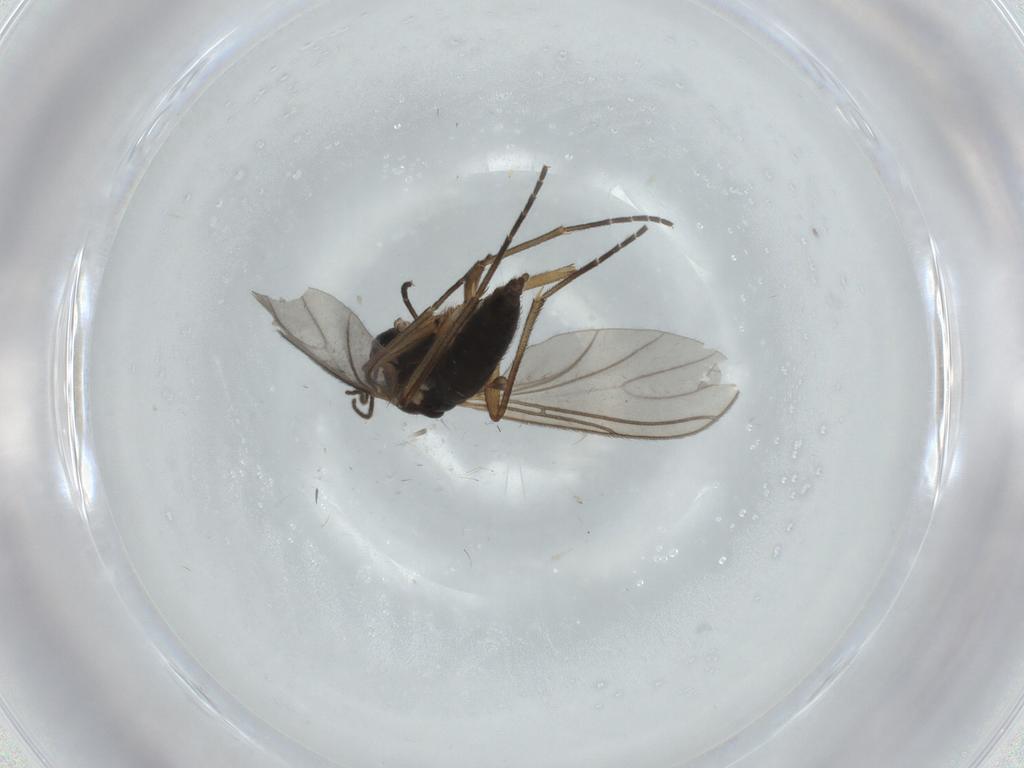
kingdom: Animalia
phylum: Arthropoda
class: Insecta
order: Diptera
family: Sciaridae
